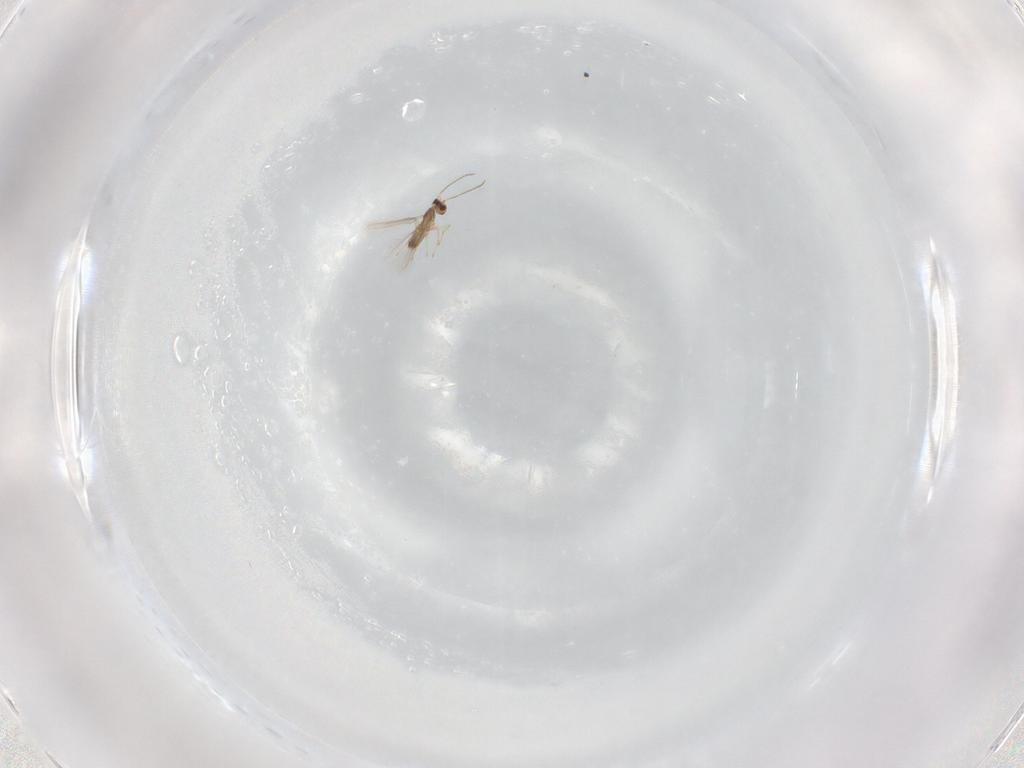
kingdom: Animalia
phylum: Arthropoda
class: Insecta
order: Hymenoptera
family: Mymaridae
